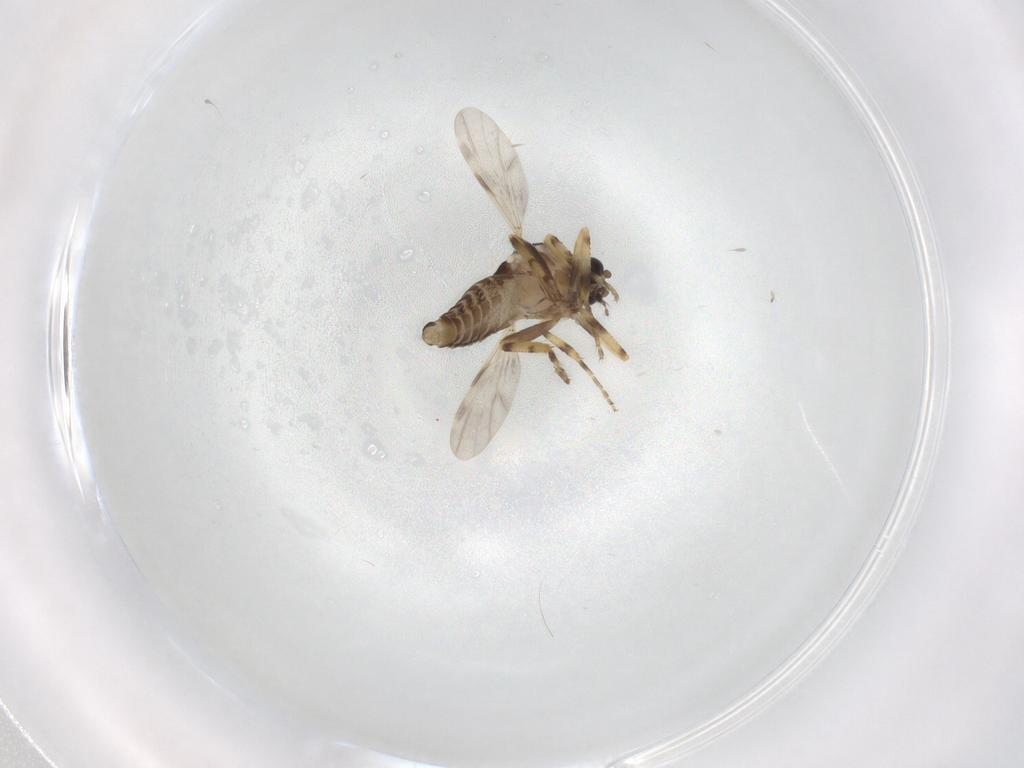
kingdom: Animalia
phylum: Arthropoda
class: Insecta
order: Diptera
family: Ceratopogonidae
